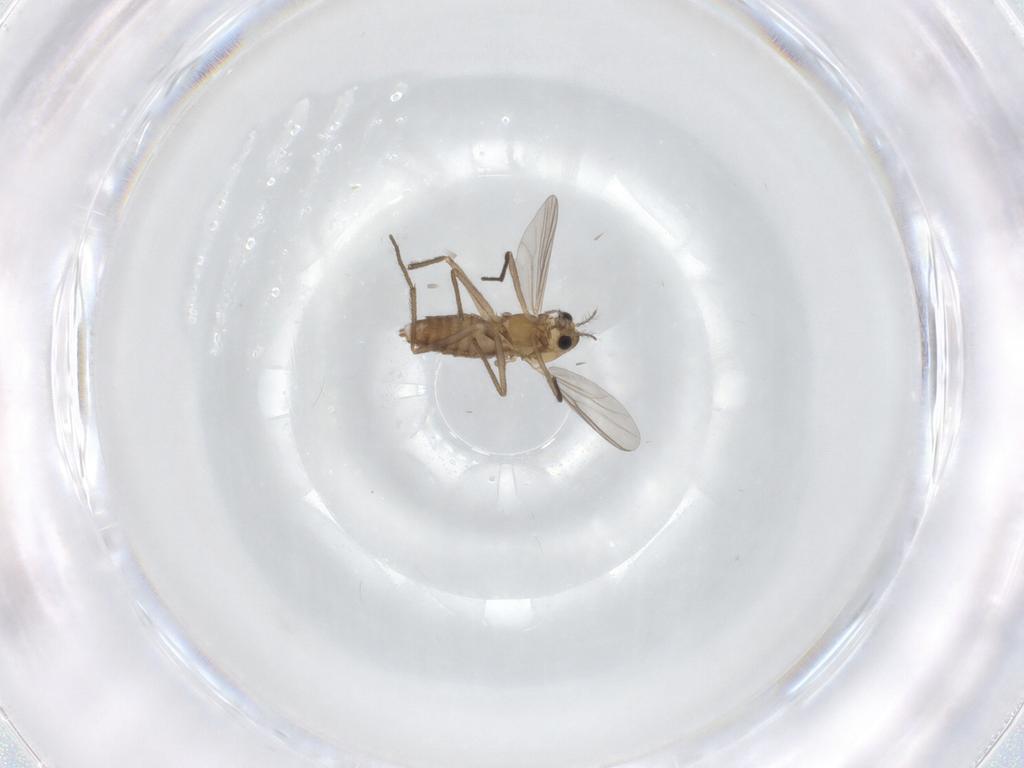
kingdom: Animalia
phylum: Arthropoda
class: Insecta
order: Diptera
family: Chironomidae
